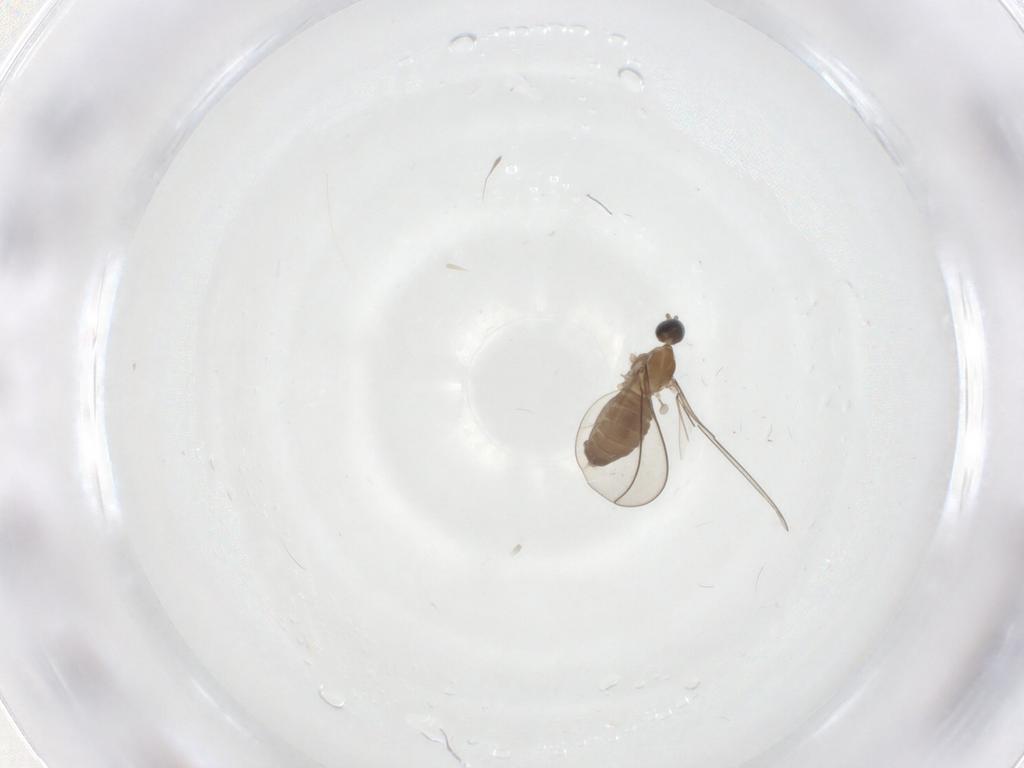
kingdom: Animalia
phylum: Arthropoda
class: Insecta
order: Diptera
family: Cecidomyiidae
